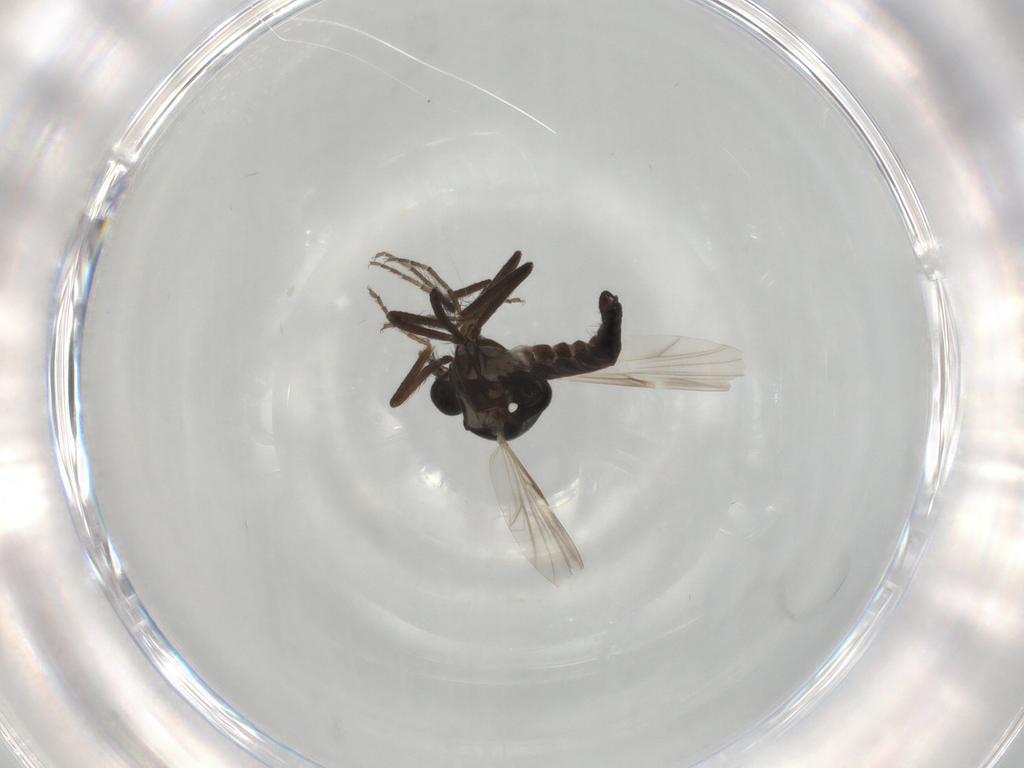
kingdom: Animalia
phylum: Arthropoda
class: Insecta
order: Diptera
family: Ceratopogonidae
